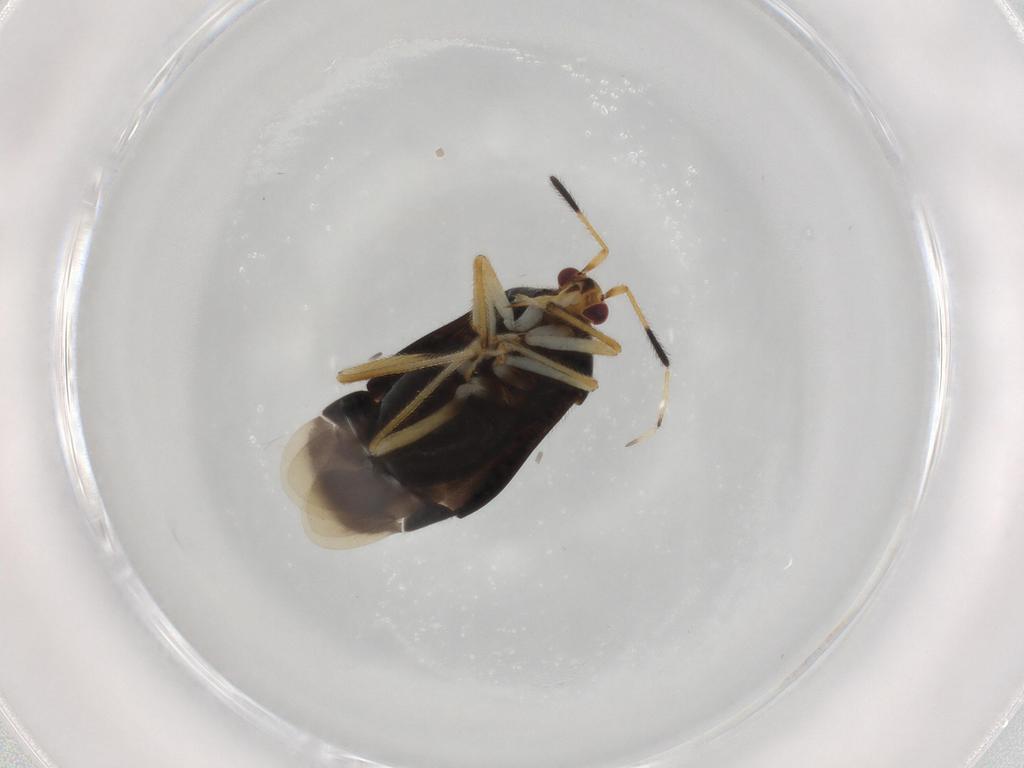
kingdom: Animalia
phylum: Arthropoda
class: Insecta
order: Hemiptera
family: Miridae
